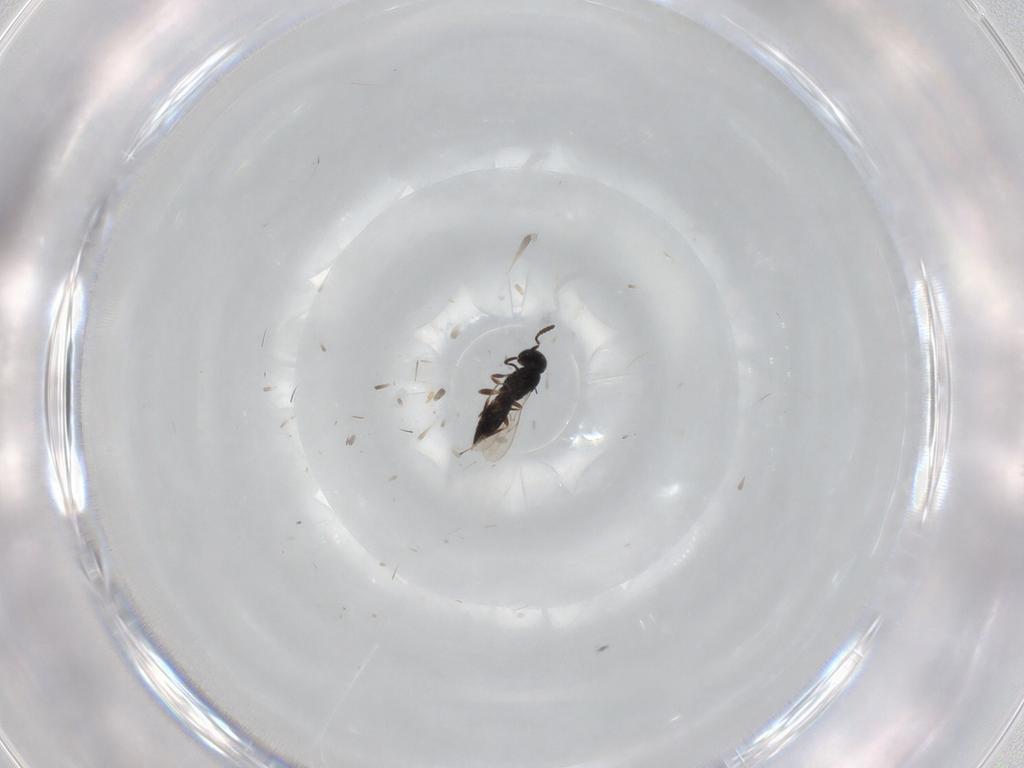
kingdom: Animalia
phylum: Arthropoda
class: Insecta
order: Hymenoptera
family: Scelionidae
